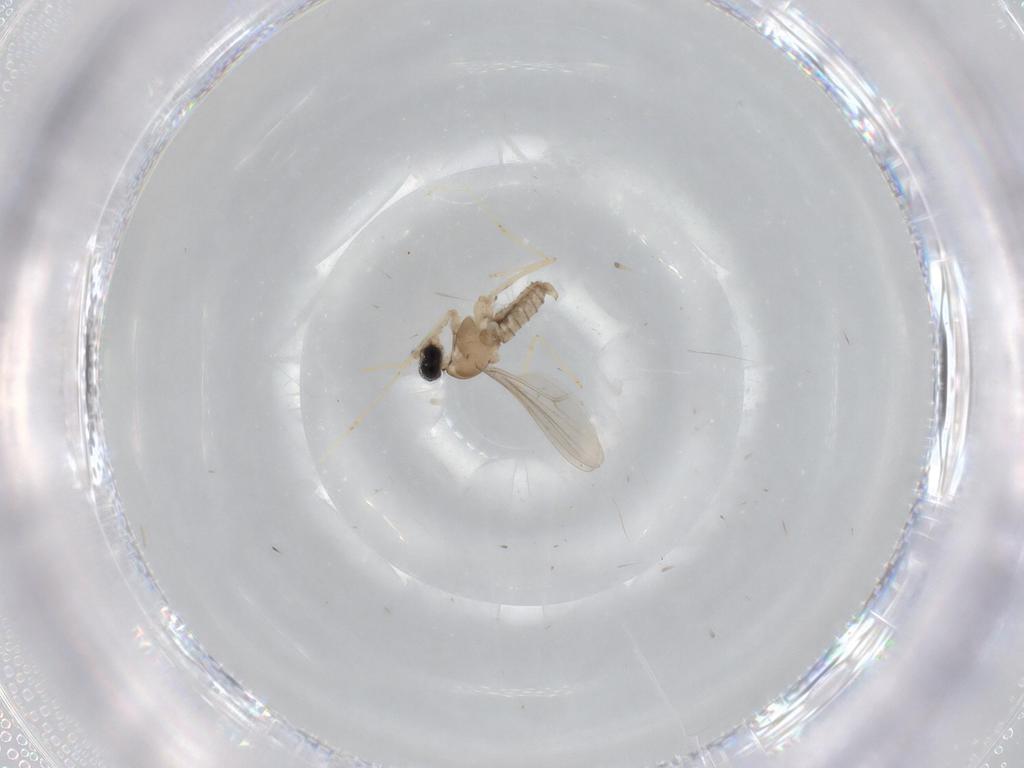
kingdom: Animalia
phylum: Arthropoda
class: Insecta
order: Diptera
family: Cecidomyiidae
